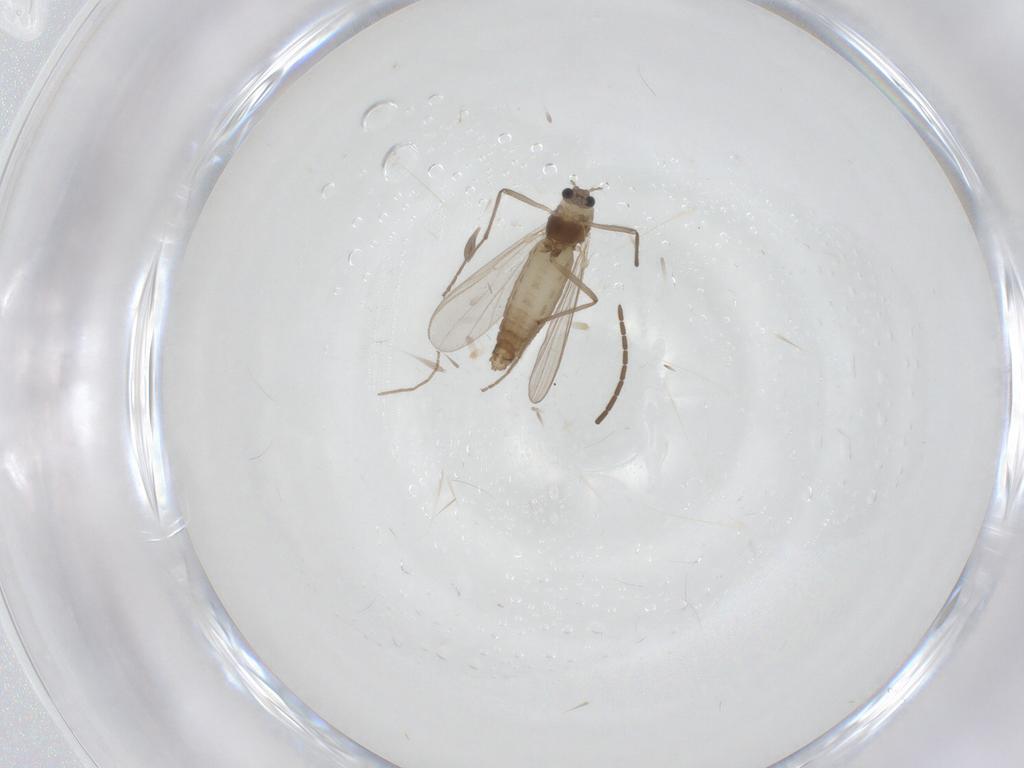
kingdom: Animalia
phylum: Arthropoda
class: Insecta
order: Diptera
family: Chironomidae
